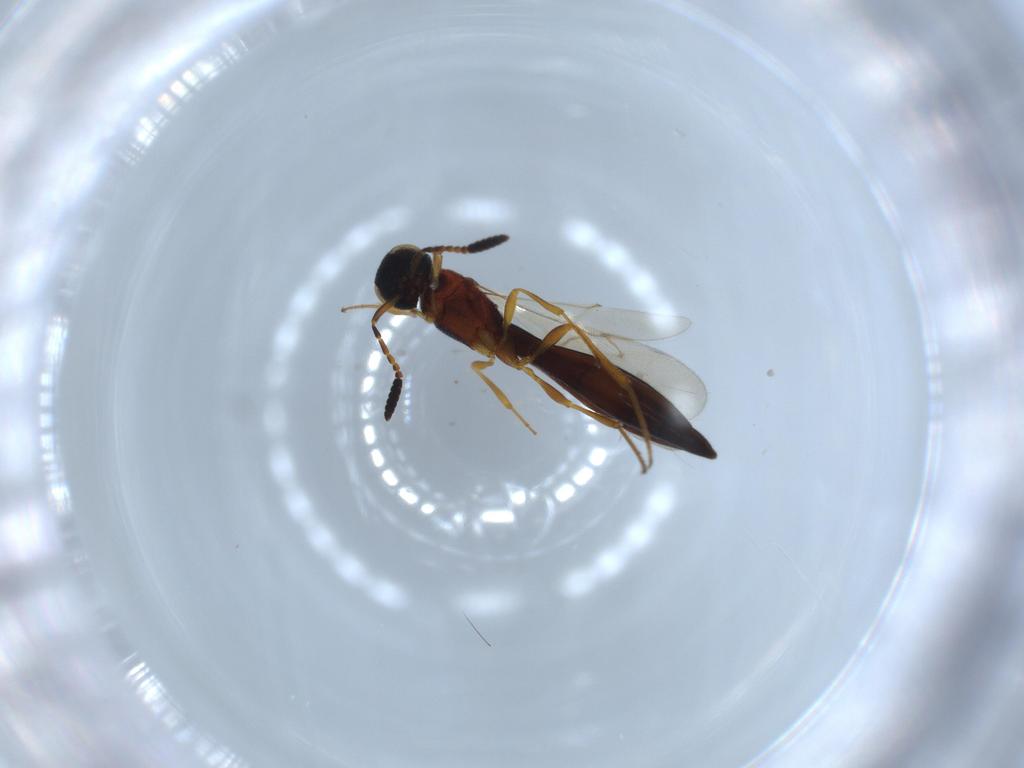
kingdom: Animalia
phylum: Arthropoda
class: Insecta
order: Hymenoptera
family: Scelionidae
